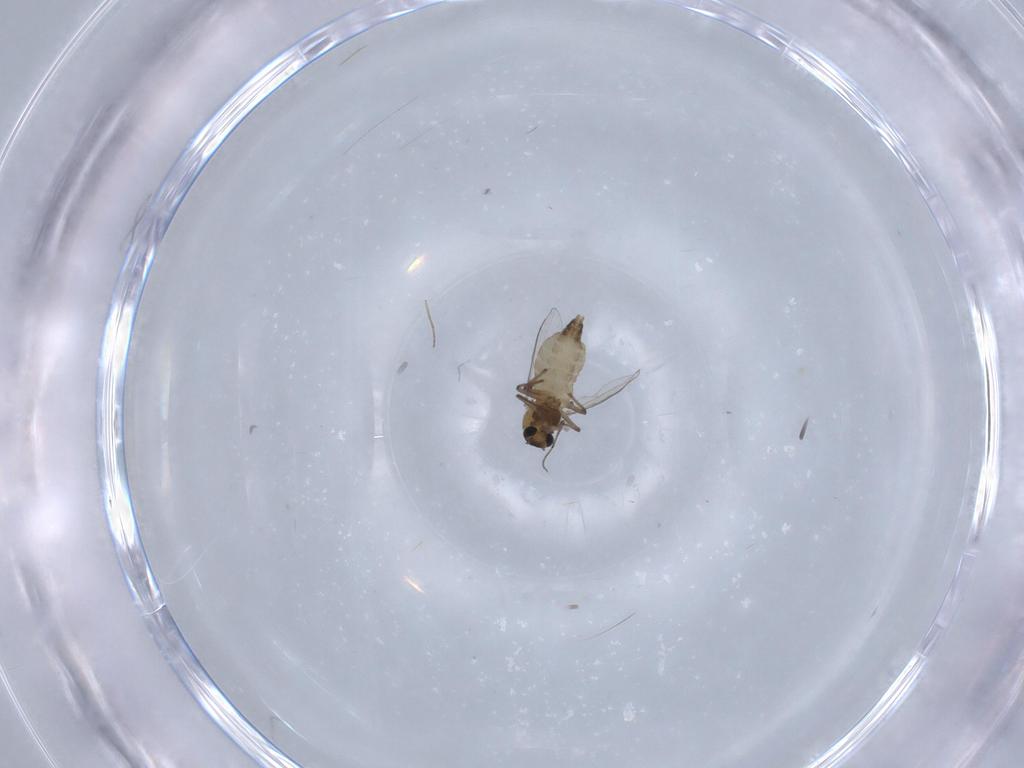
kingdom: Animalia
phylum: Arthropoda
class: Insecta
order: Diptera
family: Chironomidae
